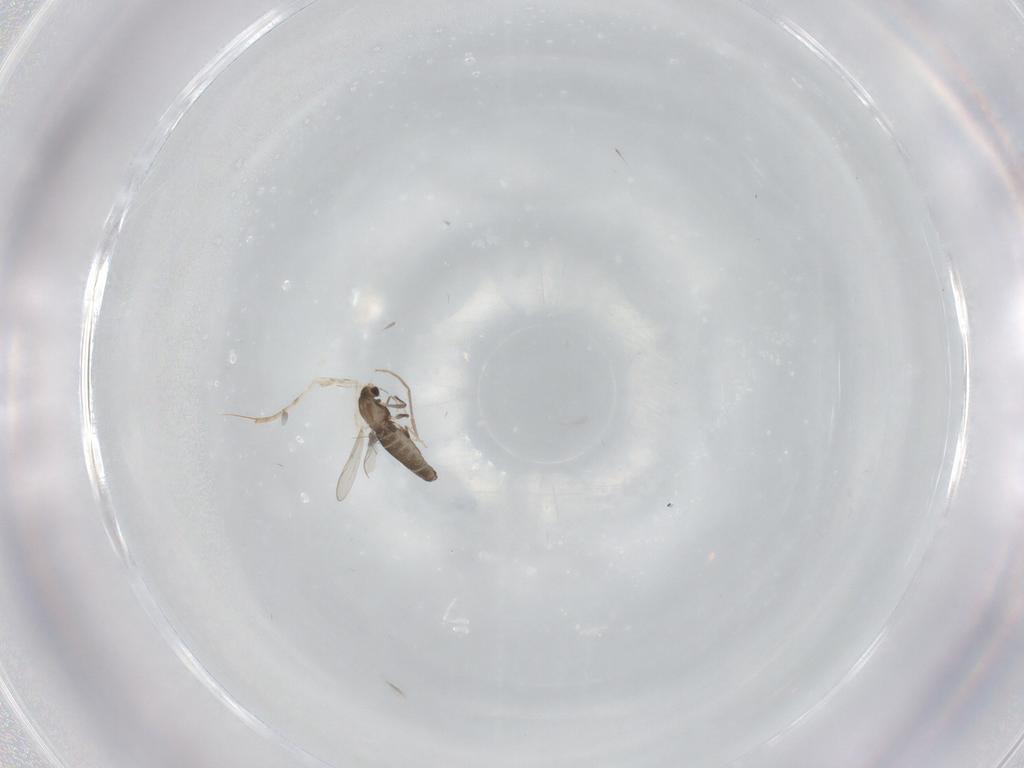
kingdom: Animalia
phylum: Arthropoda
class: Insecta
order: Diptera
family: Chironomidae
